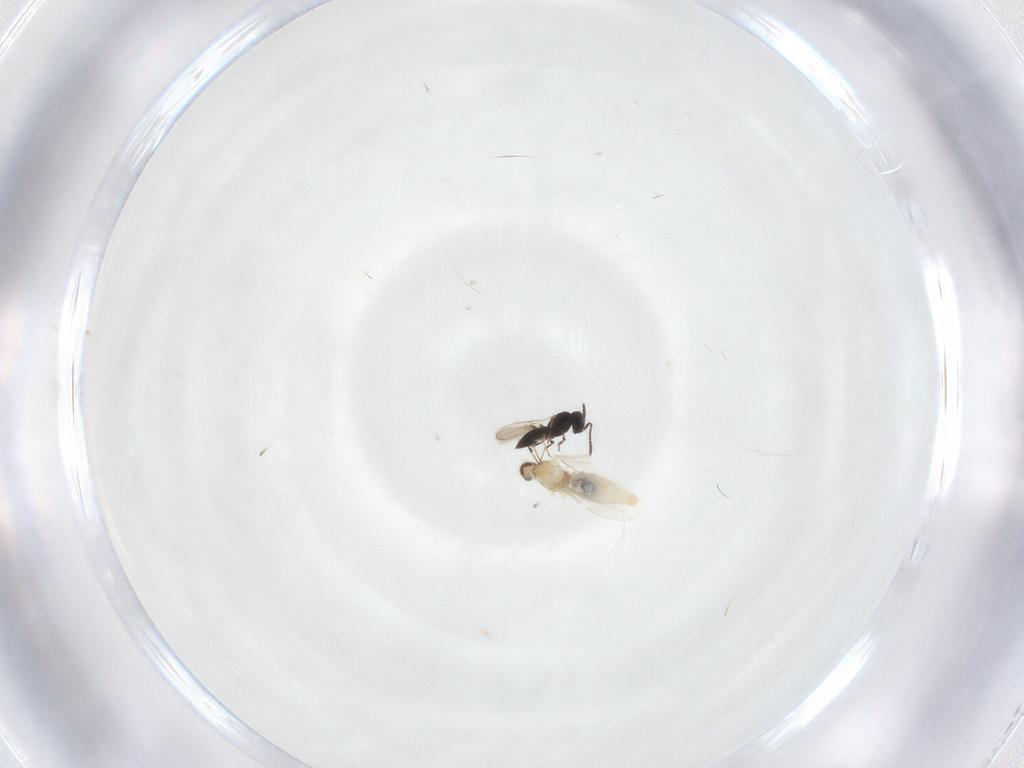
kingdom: Animalia
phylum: Arthropoda
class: Insecta
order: Hymenoptera
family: Scelionidae
